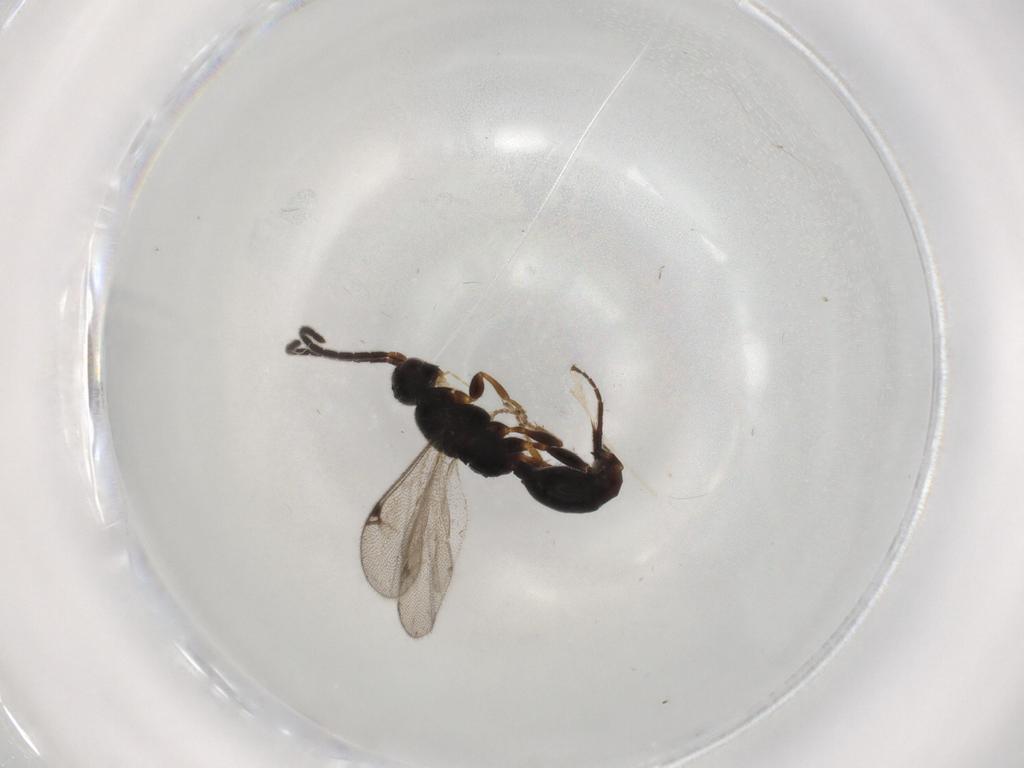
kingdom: Animalia
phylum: Arthropoda
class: Insecta
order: Hymenoptera
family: Proctotrupidae
